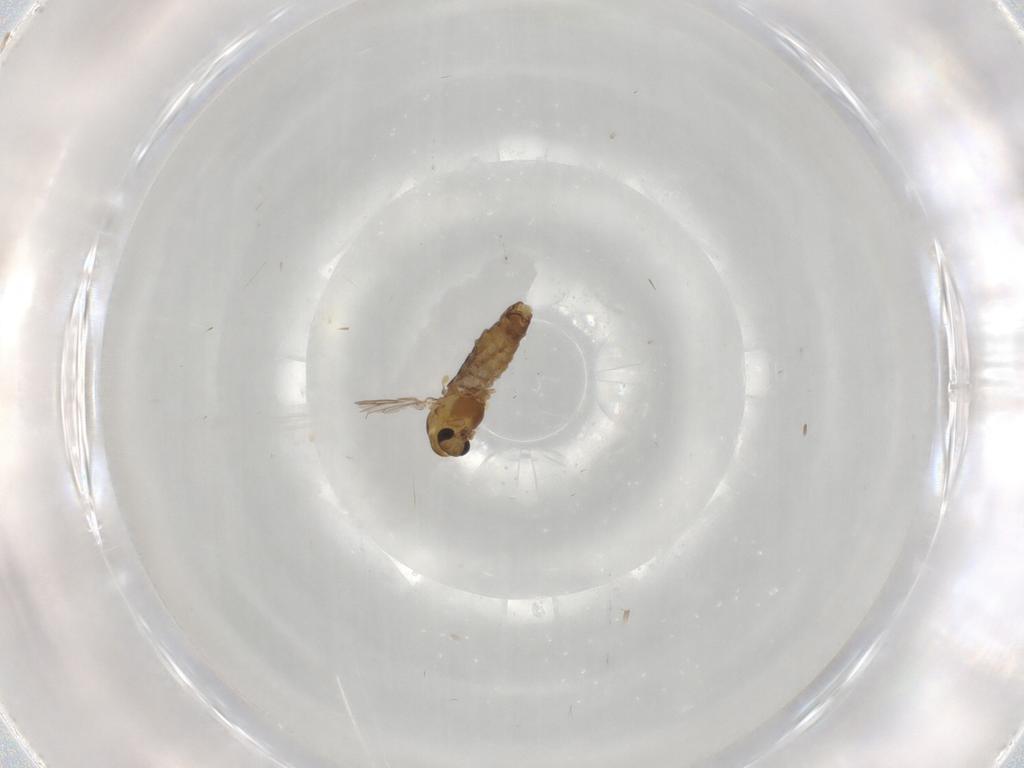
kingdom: Animalia
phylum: Arthropoda
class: Insecta
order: Diptera
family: Chironomidae
